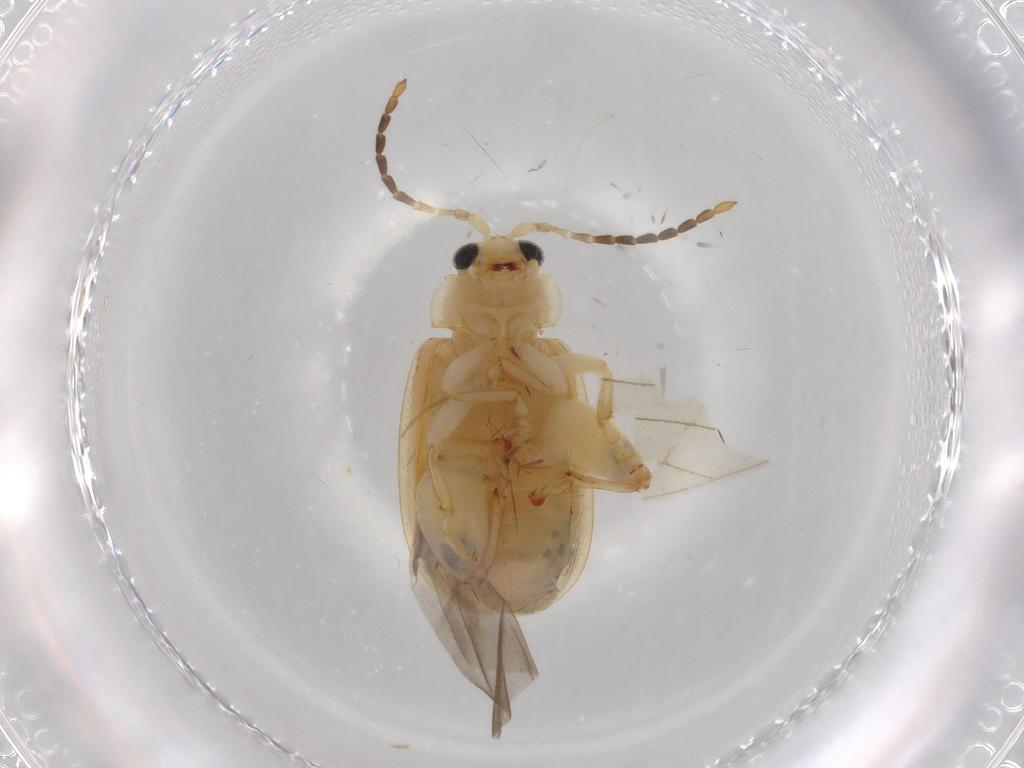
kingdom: Animalia
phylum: Arthropoda
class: Insecta
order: Coleoptera
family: Chrysomelidae
